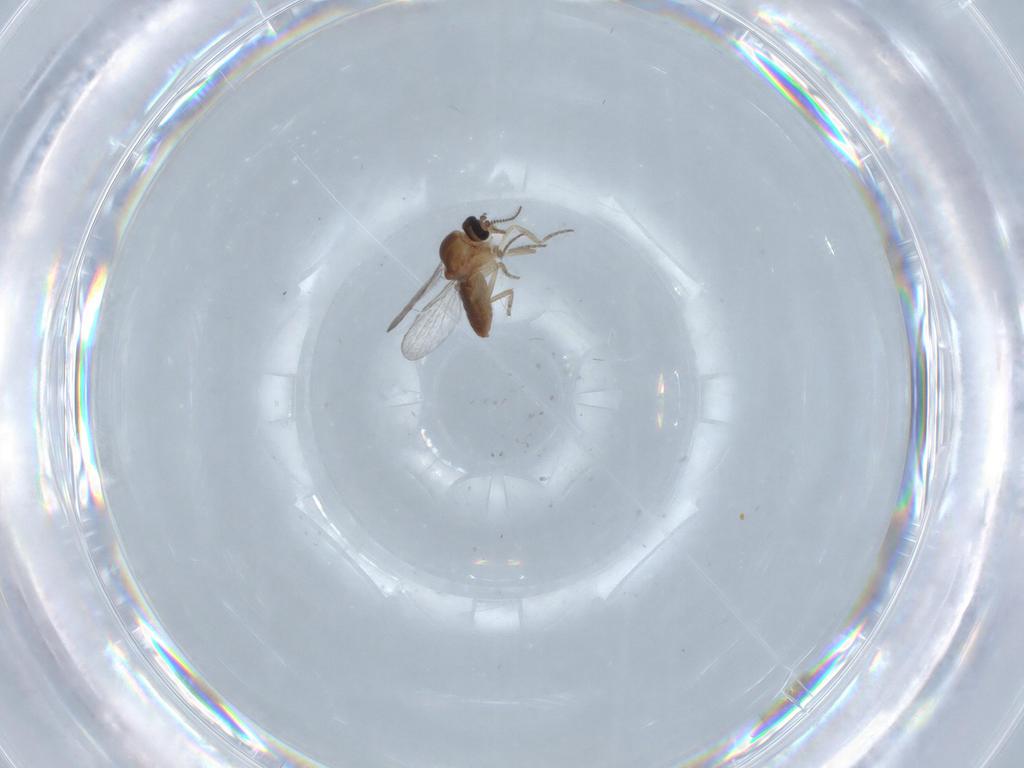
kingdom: Animalia
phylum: Arthropoda
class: Insecta
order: Diptera
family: Ceratopogonidae
